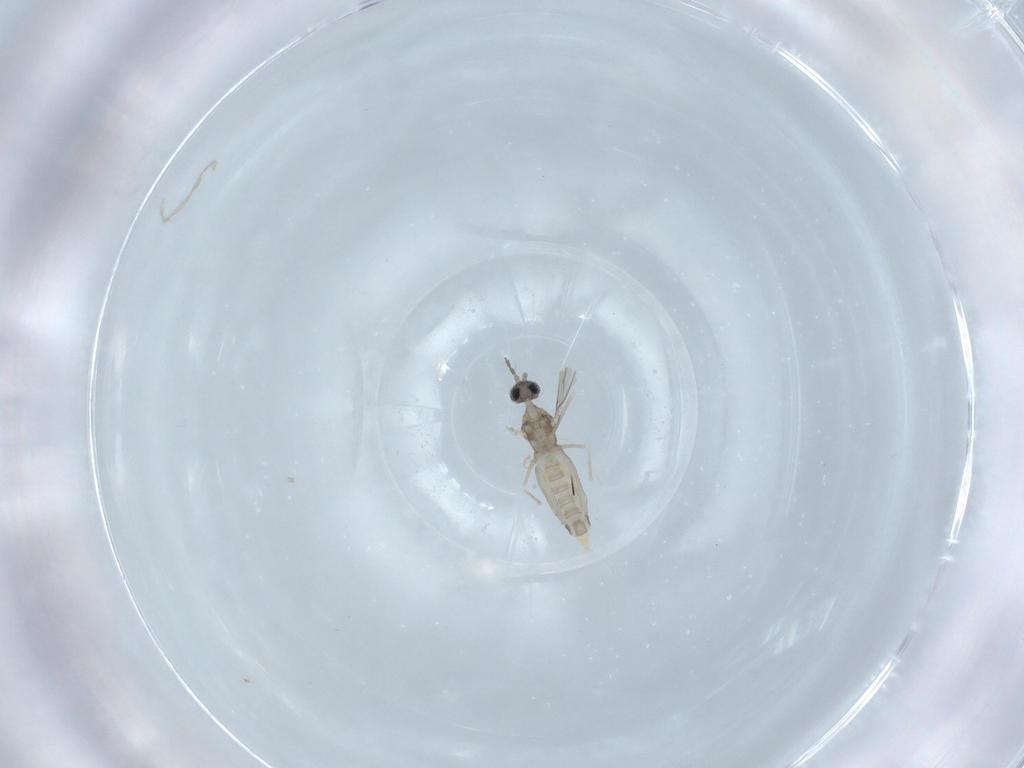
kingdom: Animalia
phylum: Arthropoda
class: Insecta
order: Diptera
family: Cecidomyiidae
